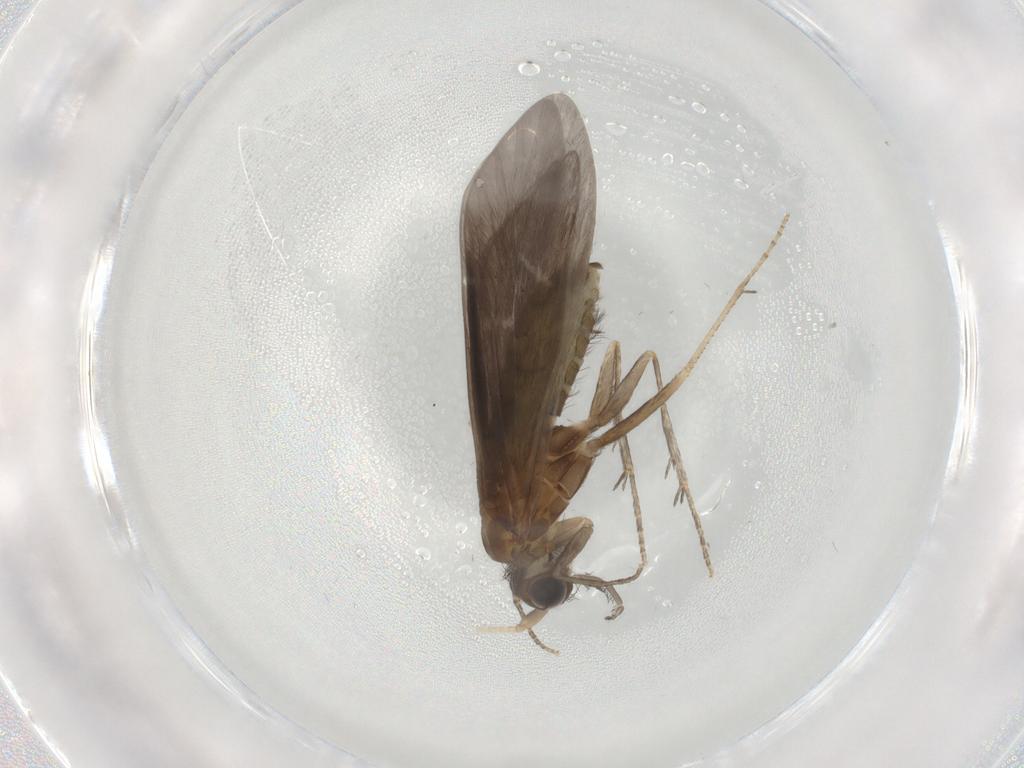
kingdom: Animalia
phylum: Arthropoda
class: Insecta
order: Trichoptera
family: Helicopsychidae
